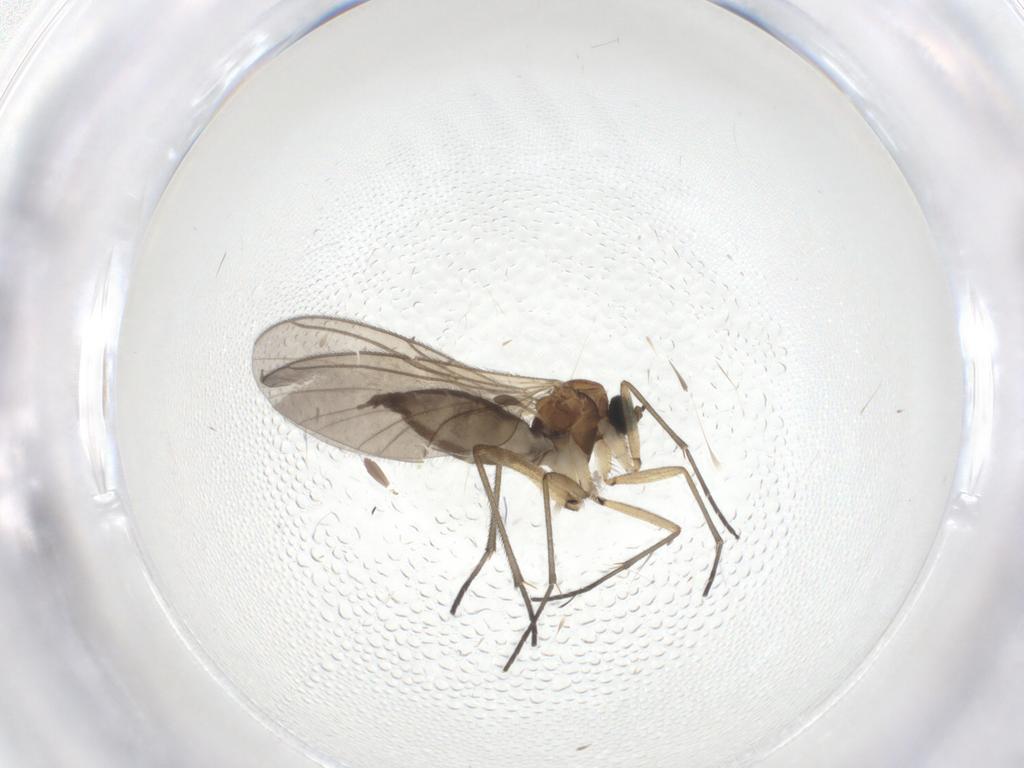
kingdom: Animalia
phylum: Arthropoda
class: Insecta
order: Diptera
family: Sciaridae
